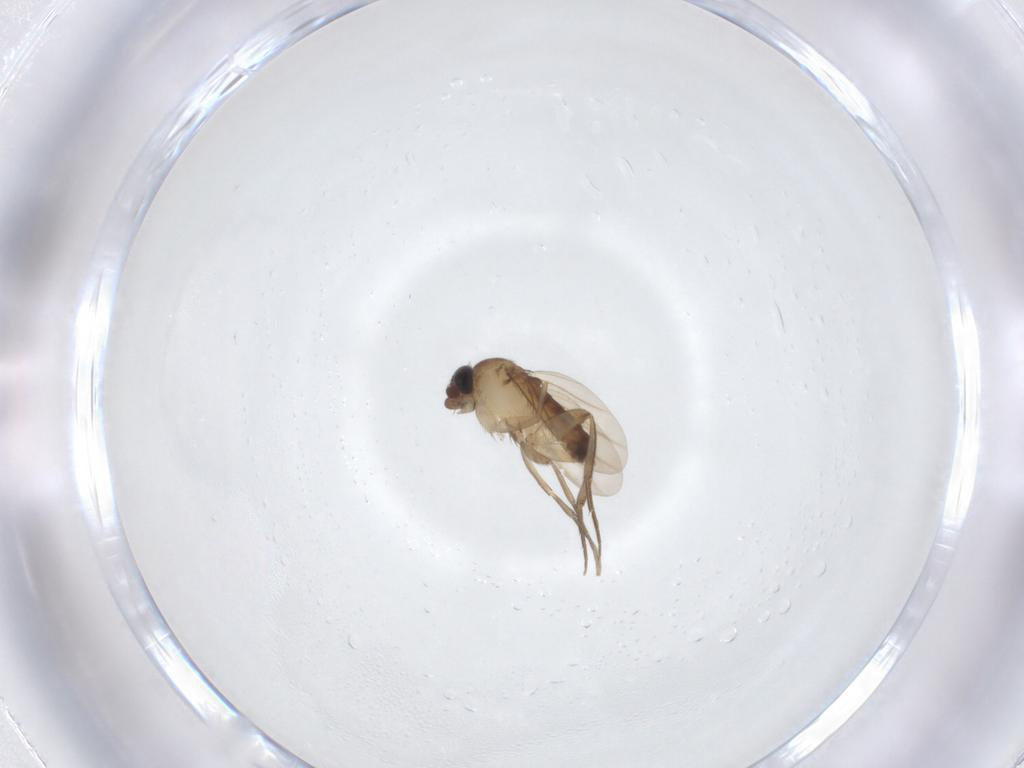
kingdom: Animalia
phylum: Arthropoda
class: Insecta
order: Diptera
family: Phoridae
